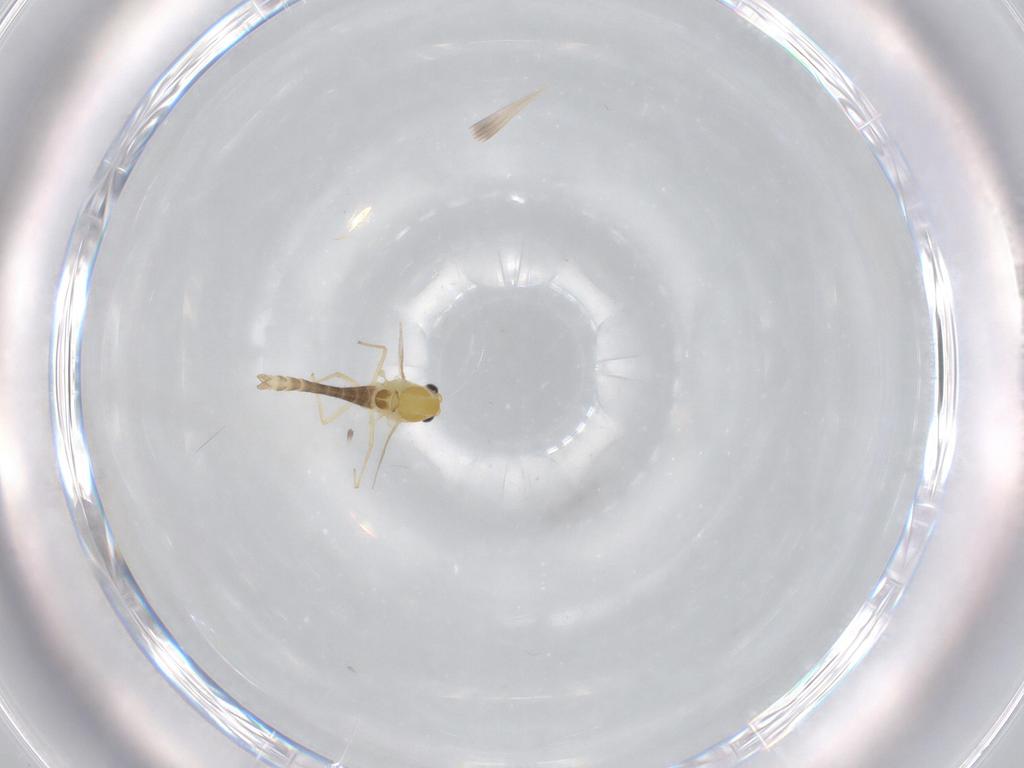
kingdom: Animalia
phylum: Arthropoda
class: Insecta
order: Diptera
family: Chironomidae
